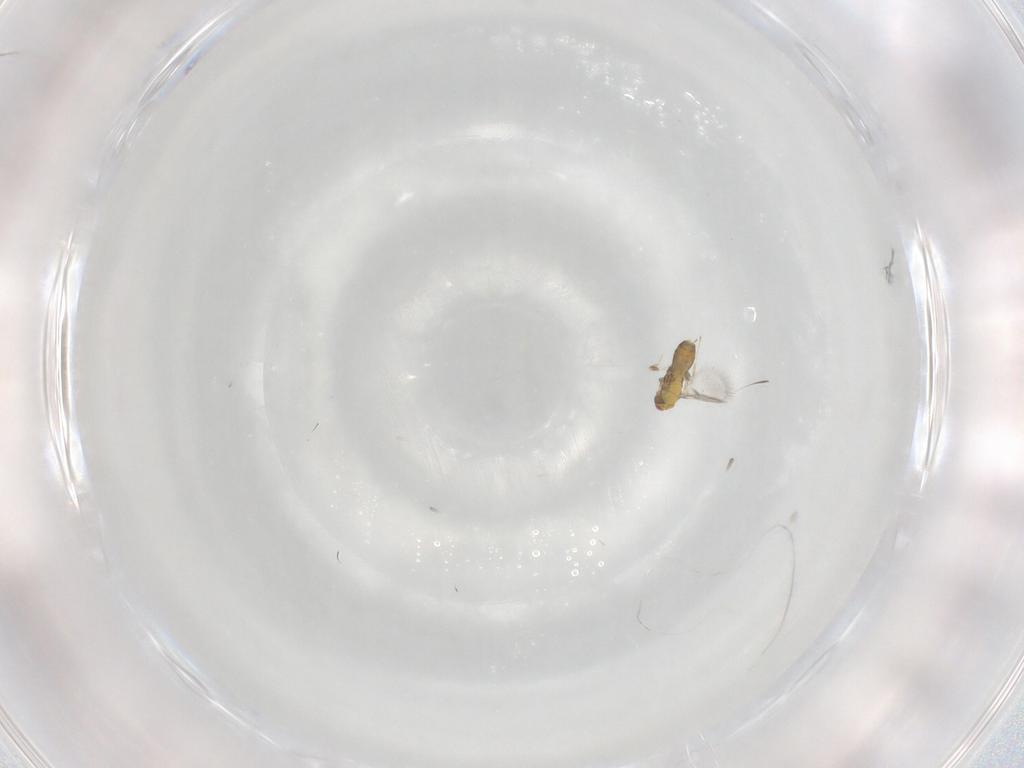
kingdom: Animalia
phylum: Arthropoda
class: Insecta
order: Hymenoptera
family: Trichogrammatidae
